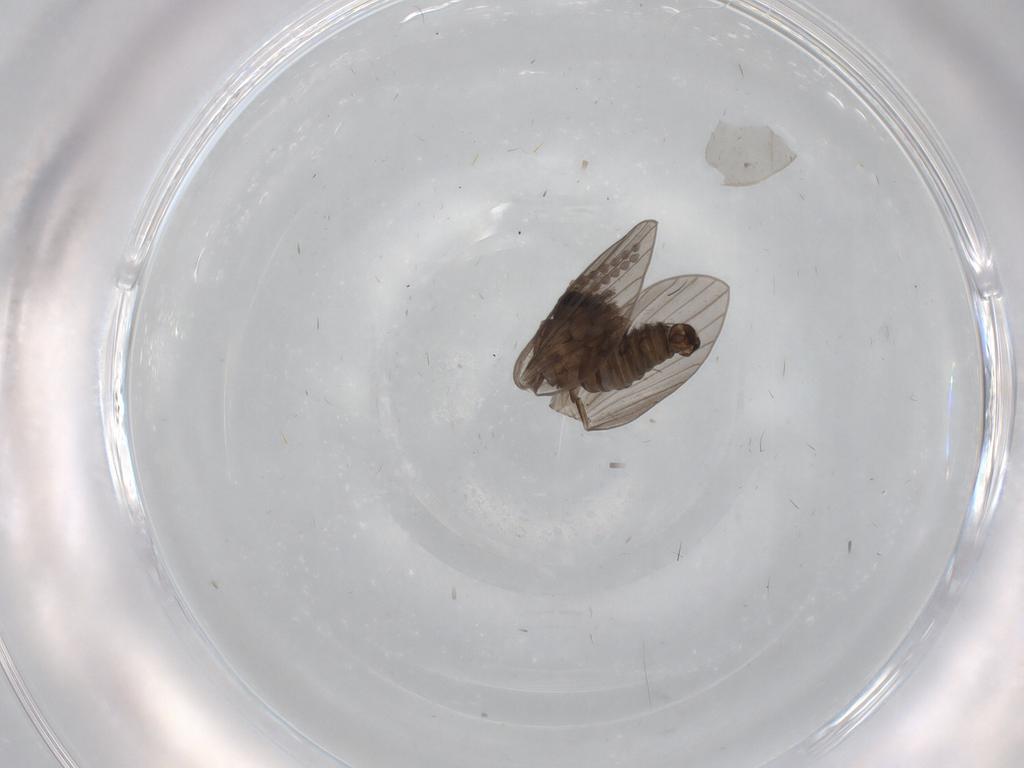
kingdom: Animalia
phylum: Arthropoda
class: Insecta
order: Diptera
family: Psychodidae
